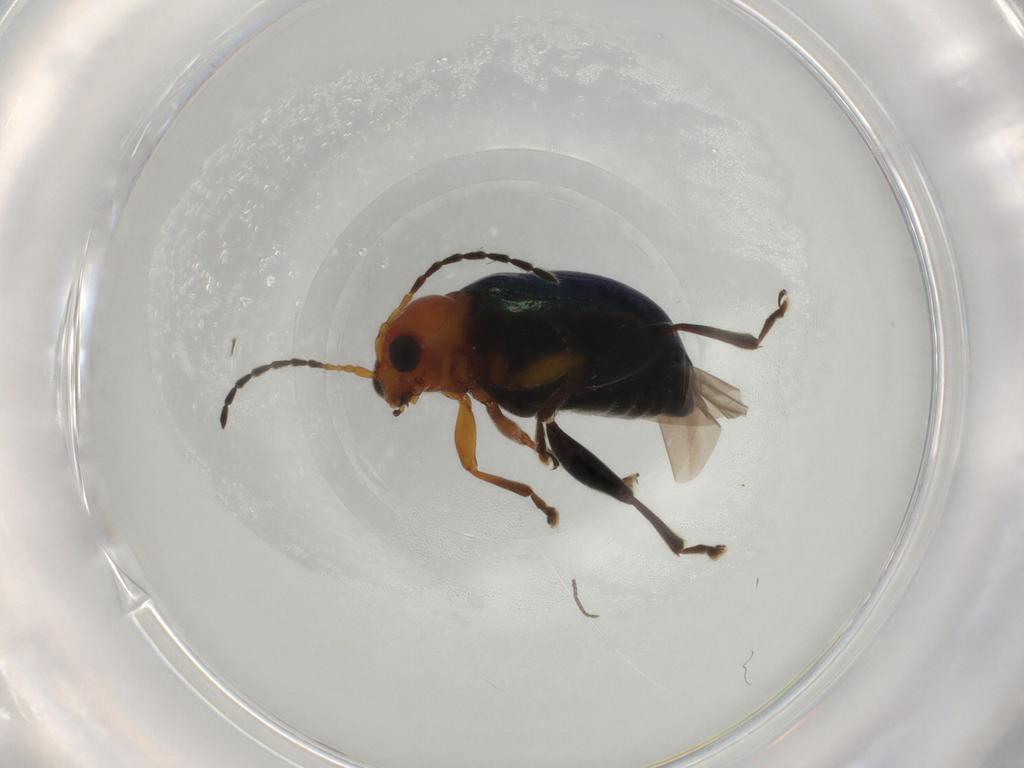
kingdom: Animalia
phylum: Arthropoda
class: Insecta
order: Coleoptera
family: Chrysomelidae
